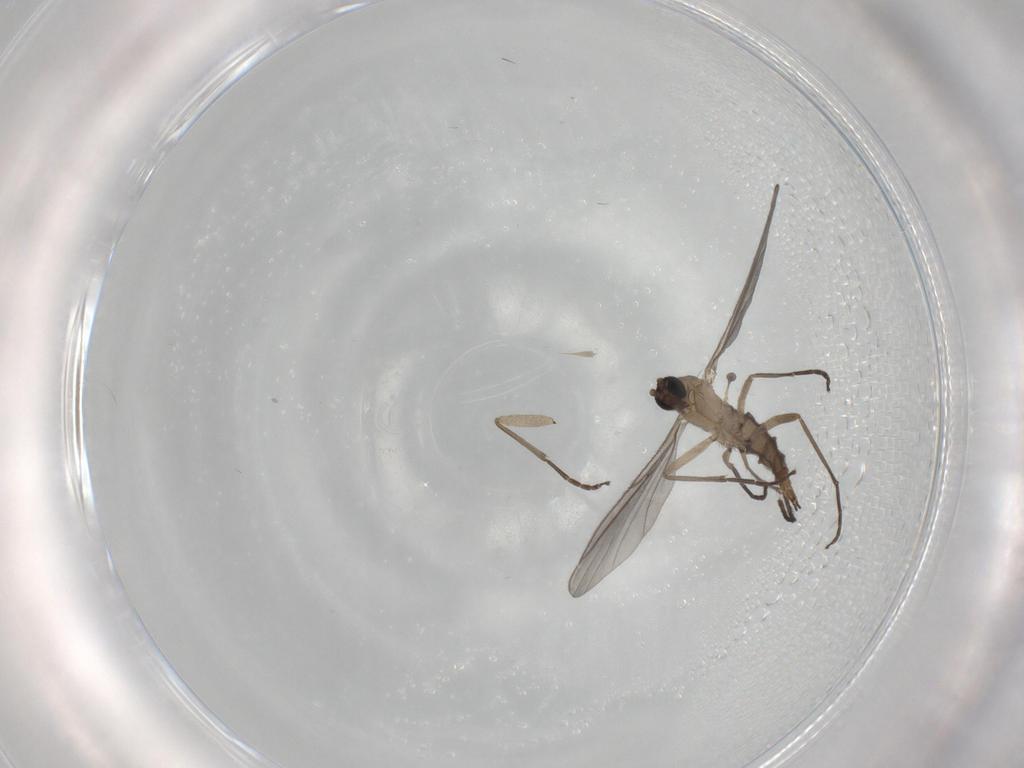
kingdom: Animalia
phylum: Arthropoda
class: Insecta
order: Diptera
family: Sciaridae
